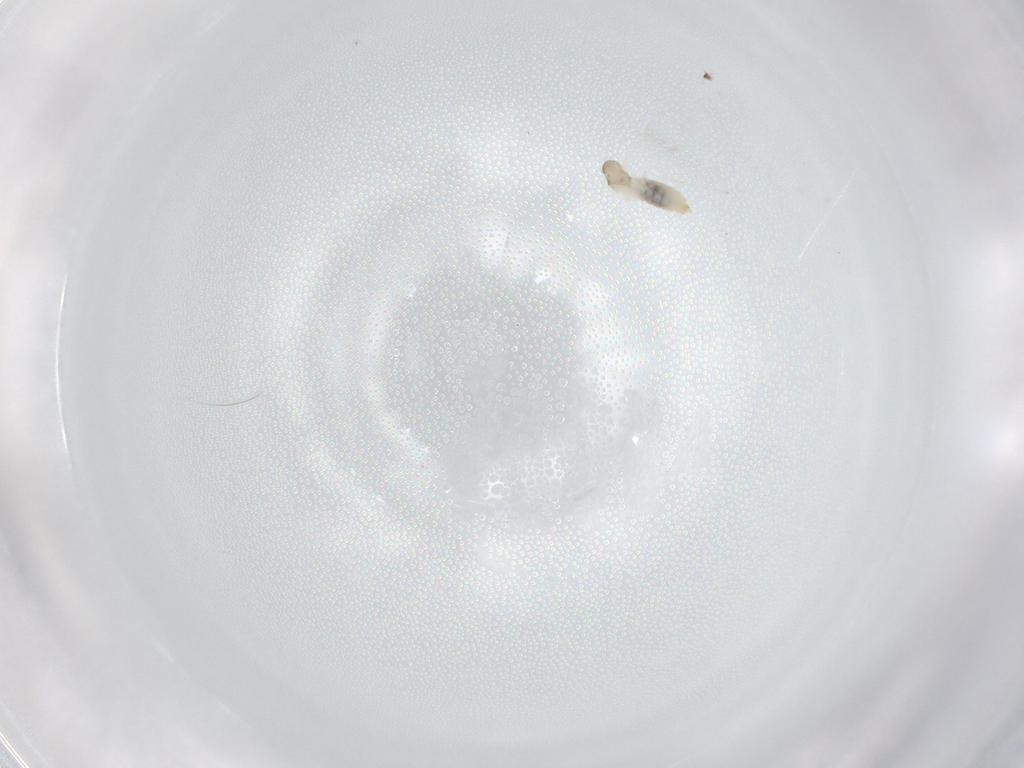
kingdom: Animalia
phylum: Arthropoda
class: Insecta
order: Diptera
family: Cecidomyiidae
